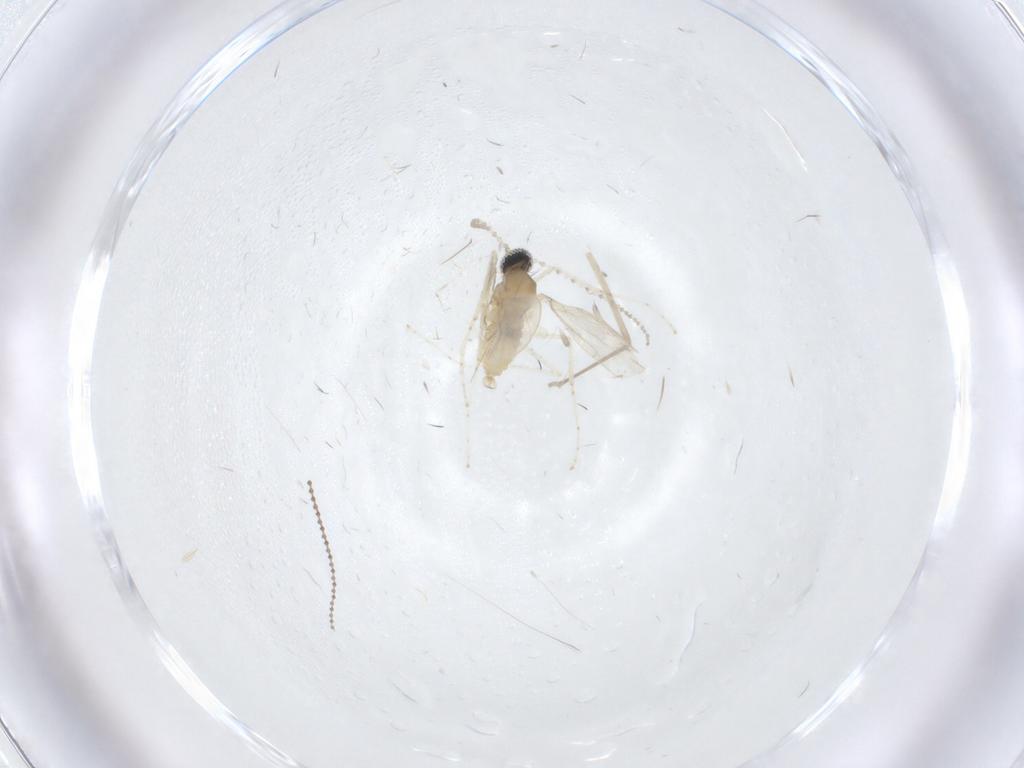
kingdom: Animalia
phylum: Arthropoda
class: Insecta
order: Diptera
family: Cecidomyiidae
